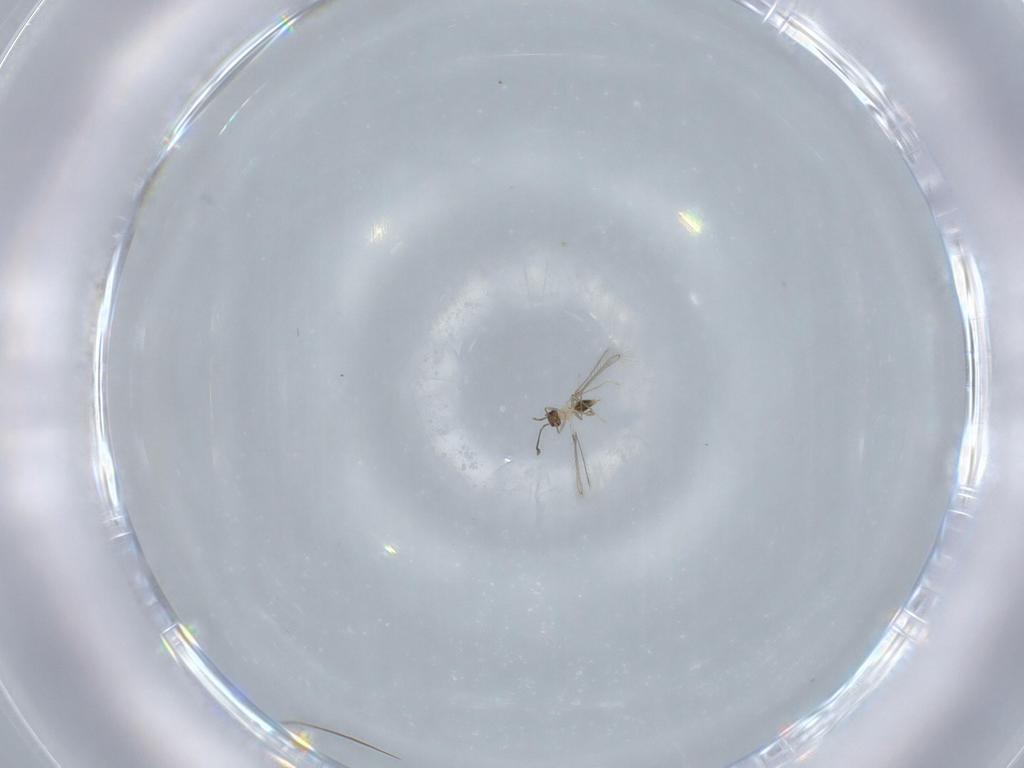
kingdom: Animalia
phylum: Arthropoda
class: Insecta
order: Hymenoptera
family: Mymaridae
